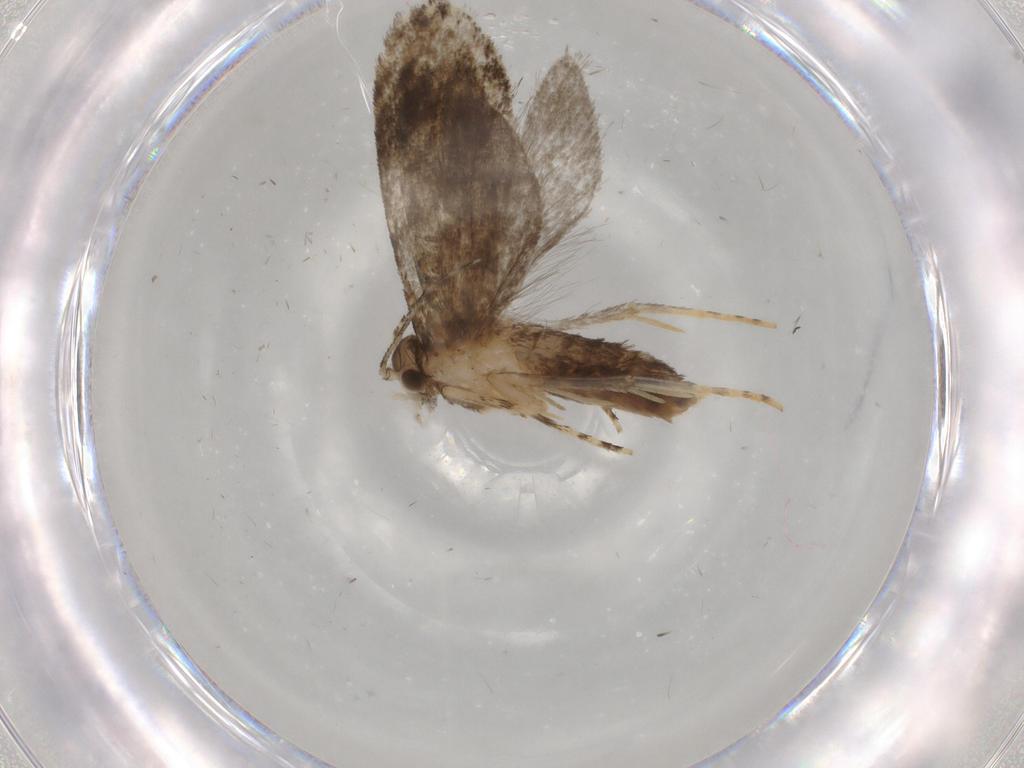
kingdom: Animalia
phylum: Arthropoda
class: Insecta
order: Lepidoptera
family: Tineidae
